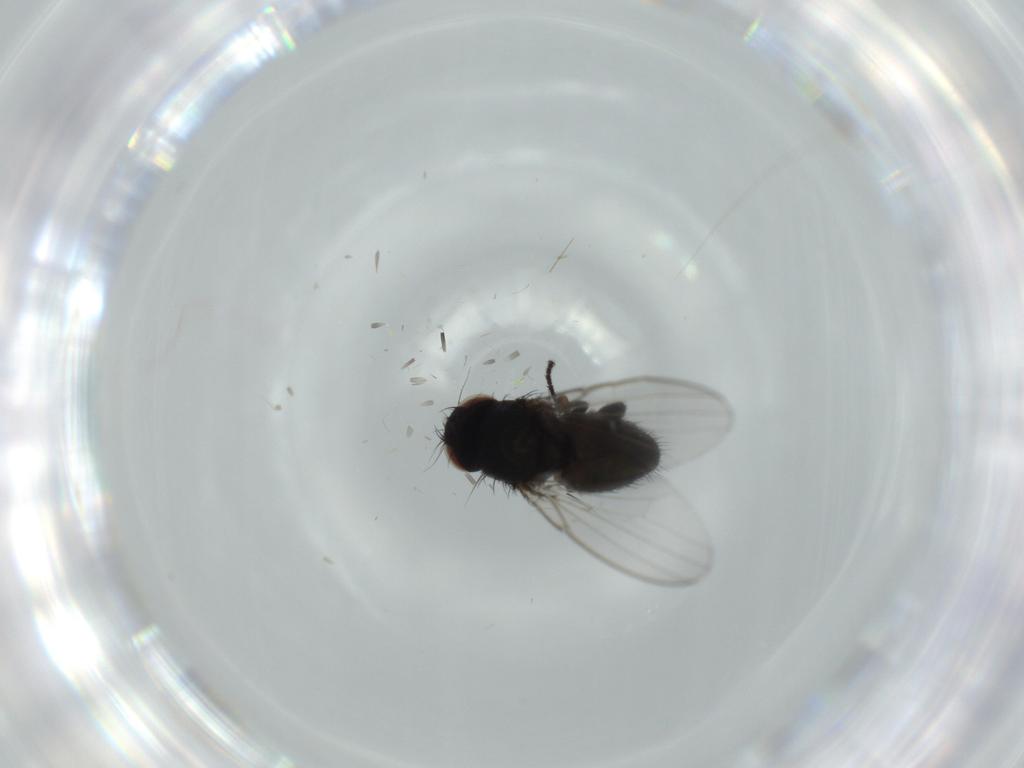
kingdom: Animalia
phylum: Arthropoda
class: Insecta
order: Diptera
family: Milichiidae
